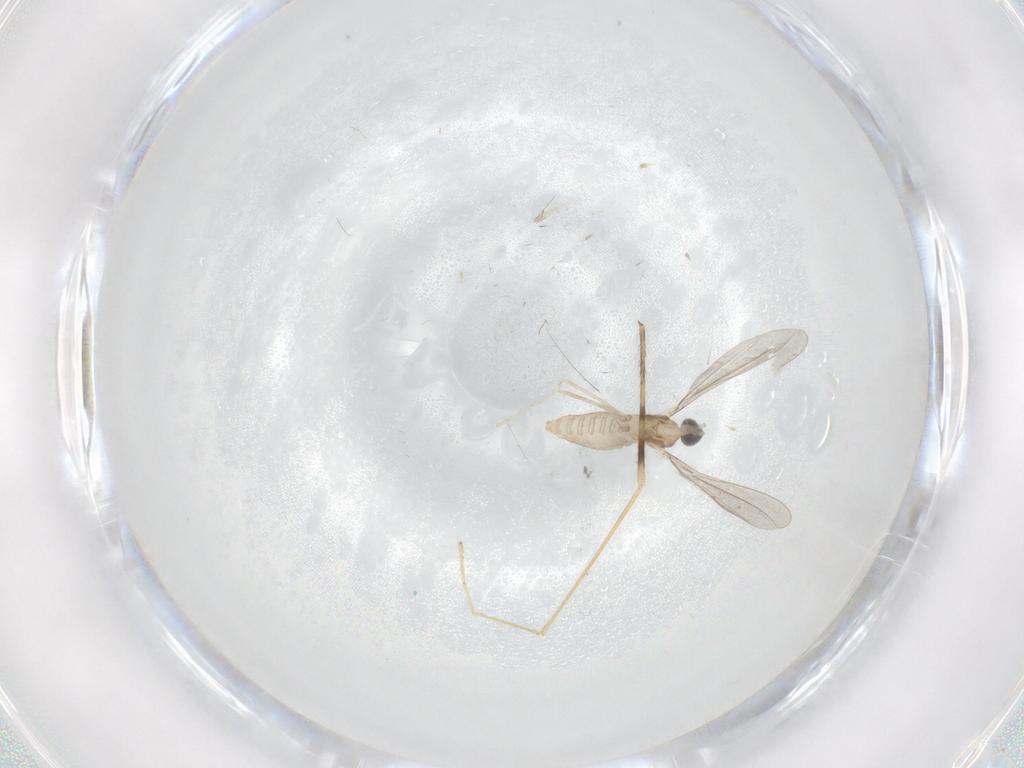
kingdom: Animalia
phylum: Arthropoda
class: Insecta
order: Diptera
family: Limoniidae
